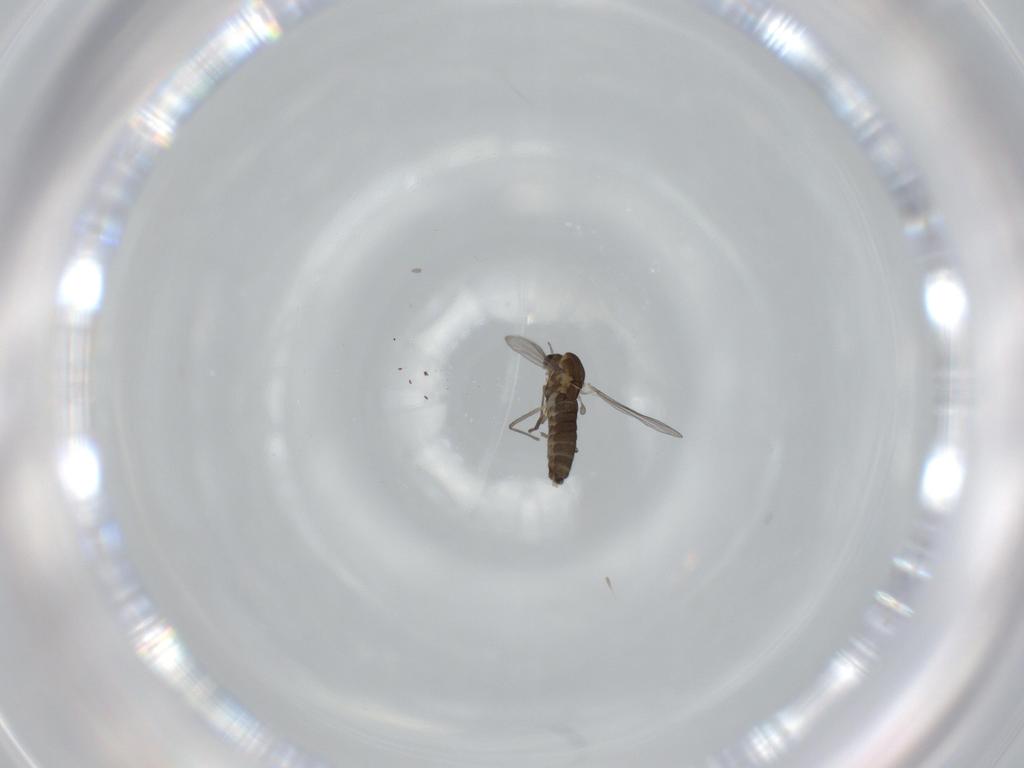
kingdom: Animalia
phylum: Arthropoda
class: Insecta
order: Diptera
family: Chironomidae
